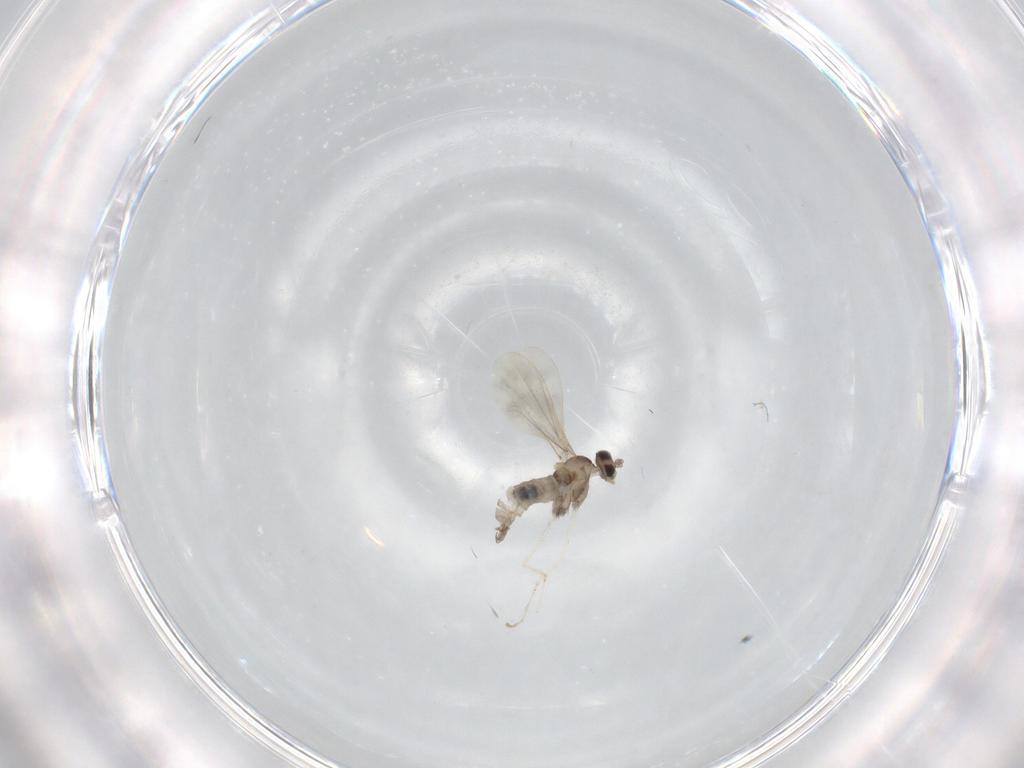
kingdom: Animalia
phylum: Arthropoda
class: Insecta
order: Diptera
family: Cecidomyiidae
